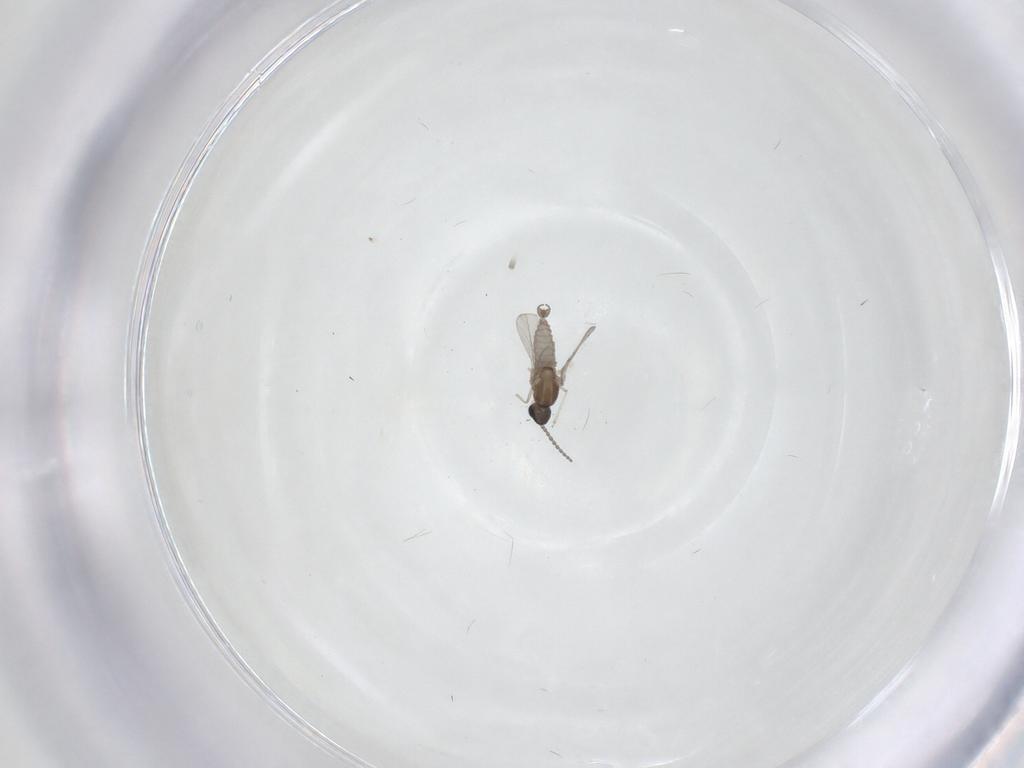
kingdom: Animalia
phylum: Arthropoda
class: Insecta
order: Diptera
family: Cecidomyiidae
